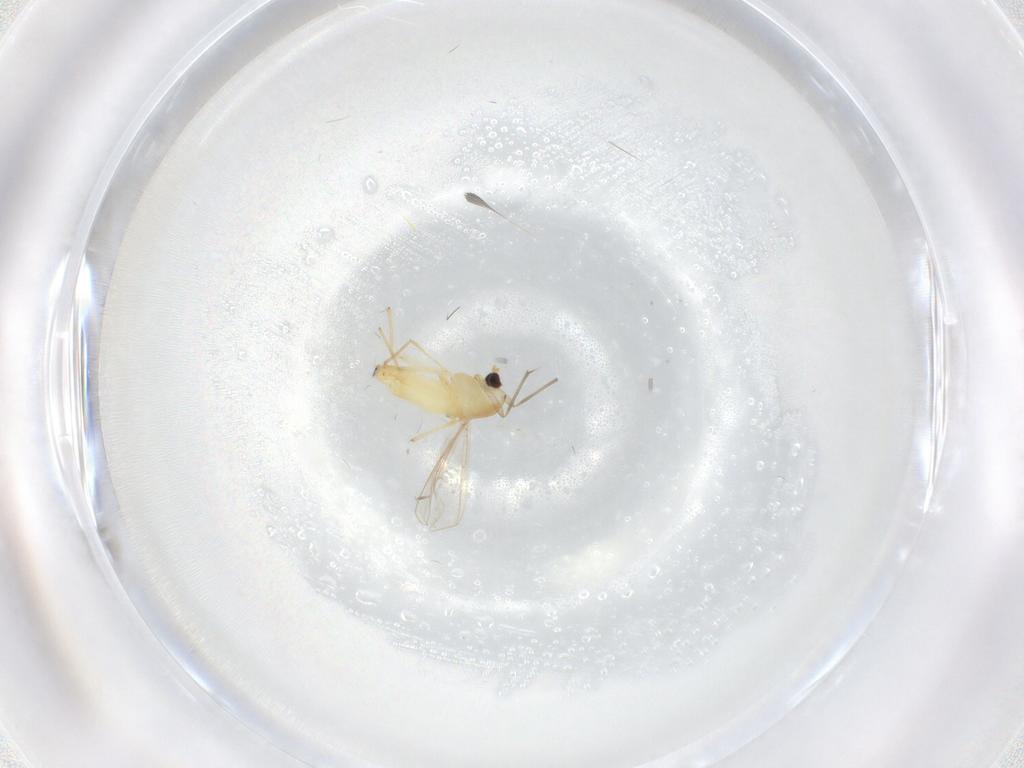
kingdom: Animalia
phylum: Arthropoda
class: Insecta
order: Diptera
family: Chironomidae
